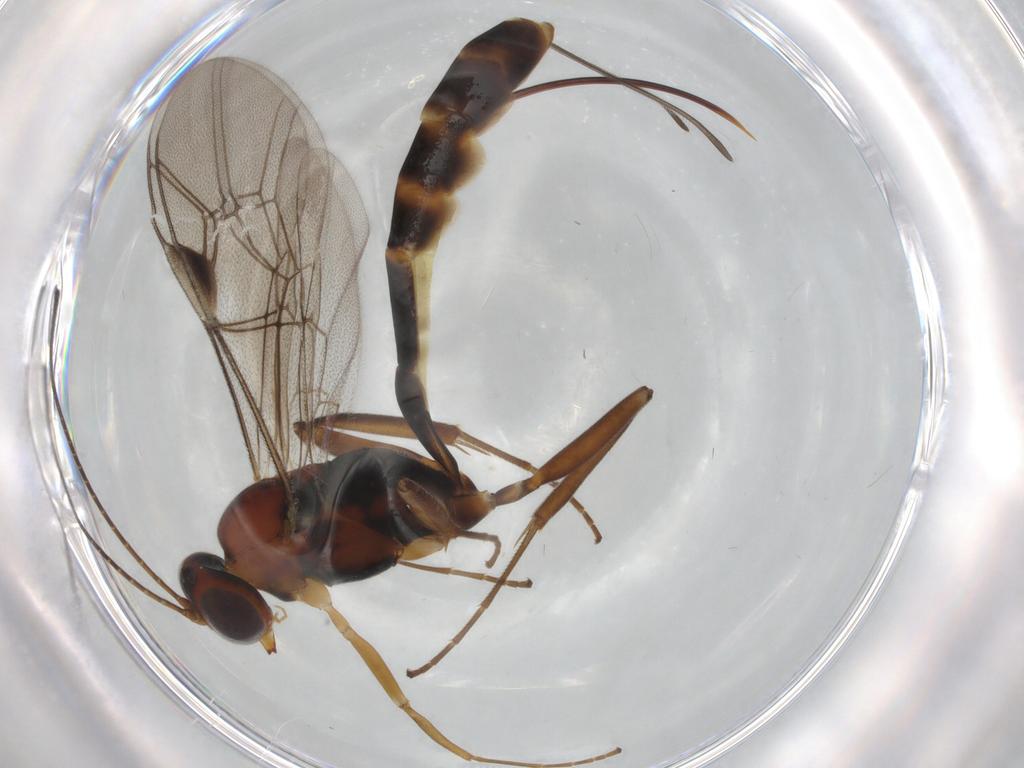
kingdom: Animalia
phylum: Arthropoda
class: Insecta
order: Hymenoptera
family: Ichneumonidae
